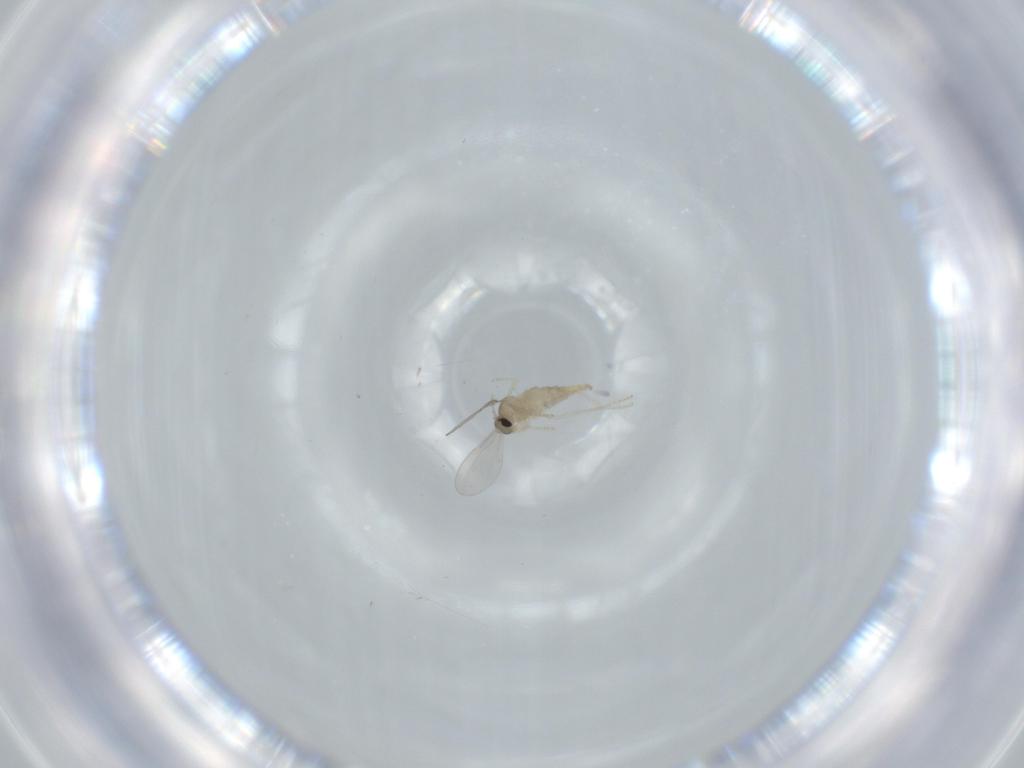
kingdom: Animalia
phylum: Arthropoda
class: Insecta
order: Diptera
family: Cecidomyiidae
